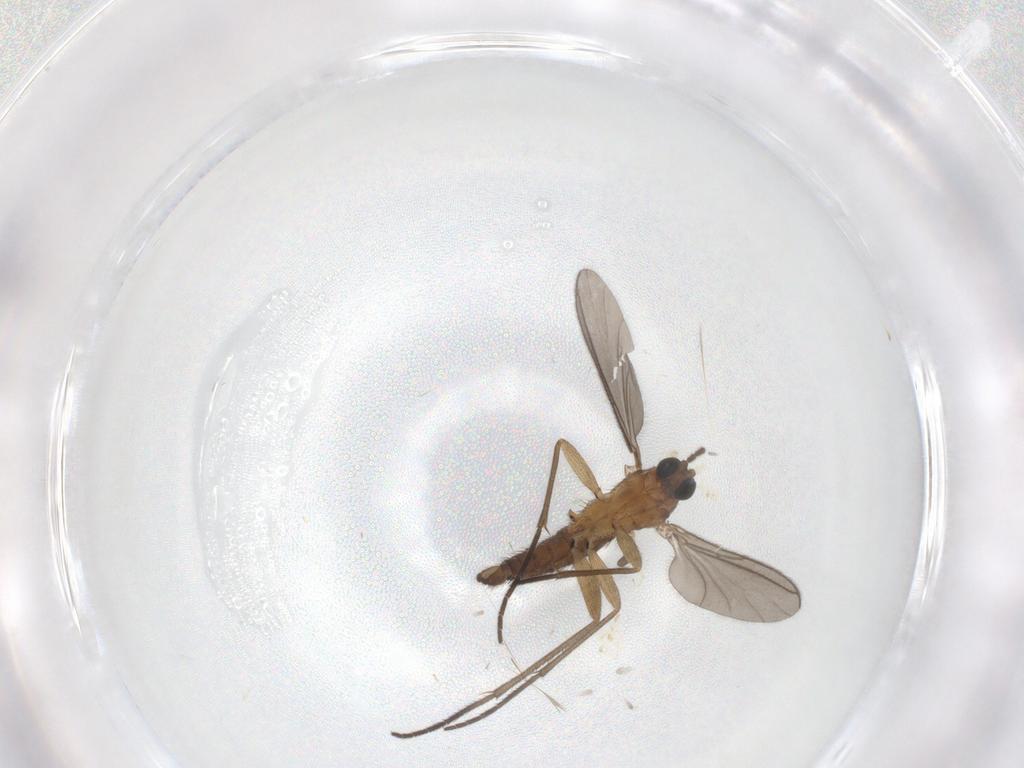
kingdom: Animalia
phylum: Arthropoda
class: Insecta
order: Diptera
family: Sciaridae
